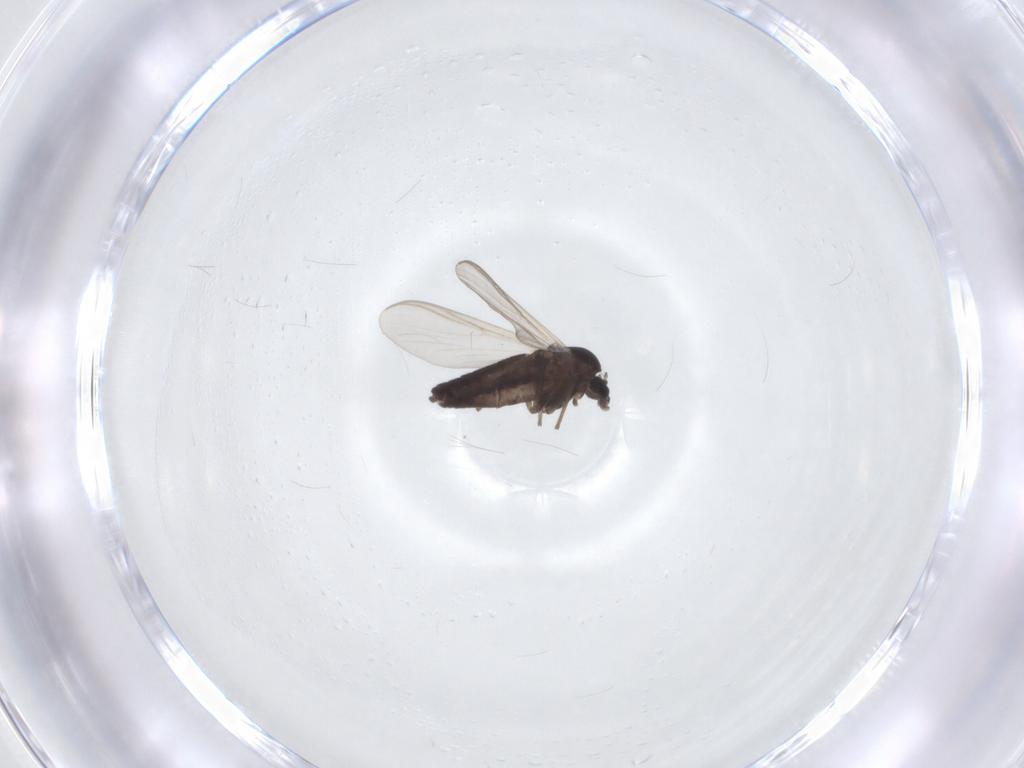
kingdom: Animalia
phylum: Arthropoda
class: Insecta
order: Diptera
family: Chironomidae
